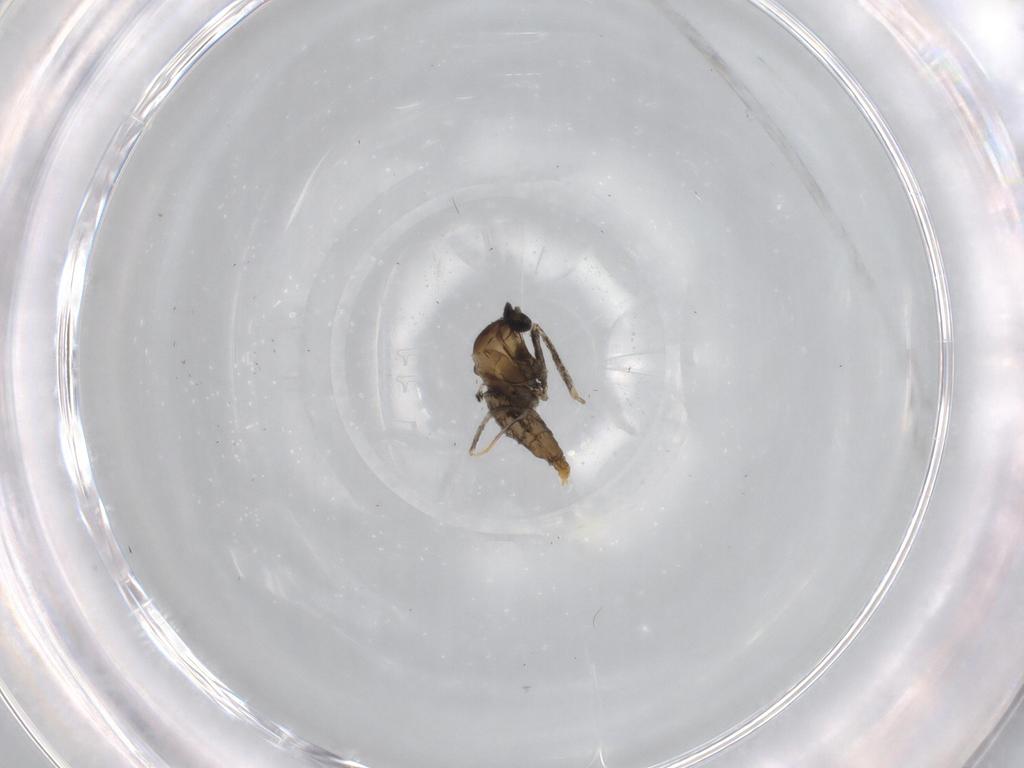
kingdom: Animalia
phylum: Arthropoda
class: Insecta
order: Diptera
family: Cecidomyiidae
